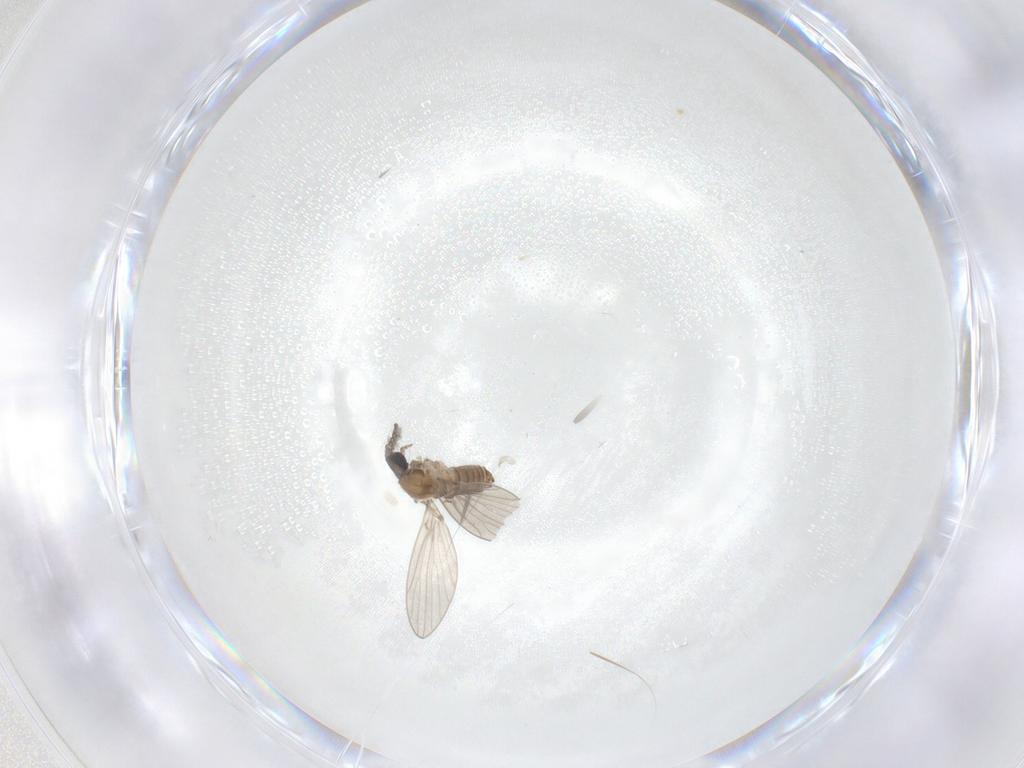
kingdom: Animalia
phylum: Arthropoda
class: Insecta
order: Diptera
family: Psychodidae
